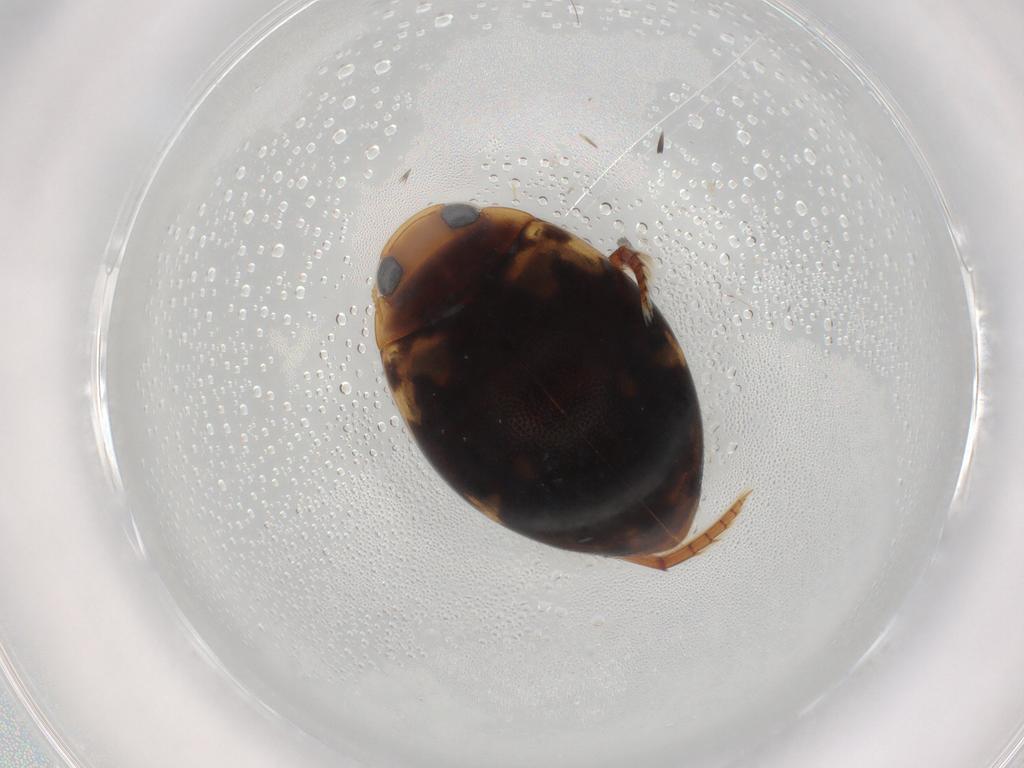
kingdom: Animalia
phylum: Arthropoda
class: Insecta
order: Coleoptera
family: Dytiscidae
